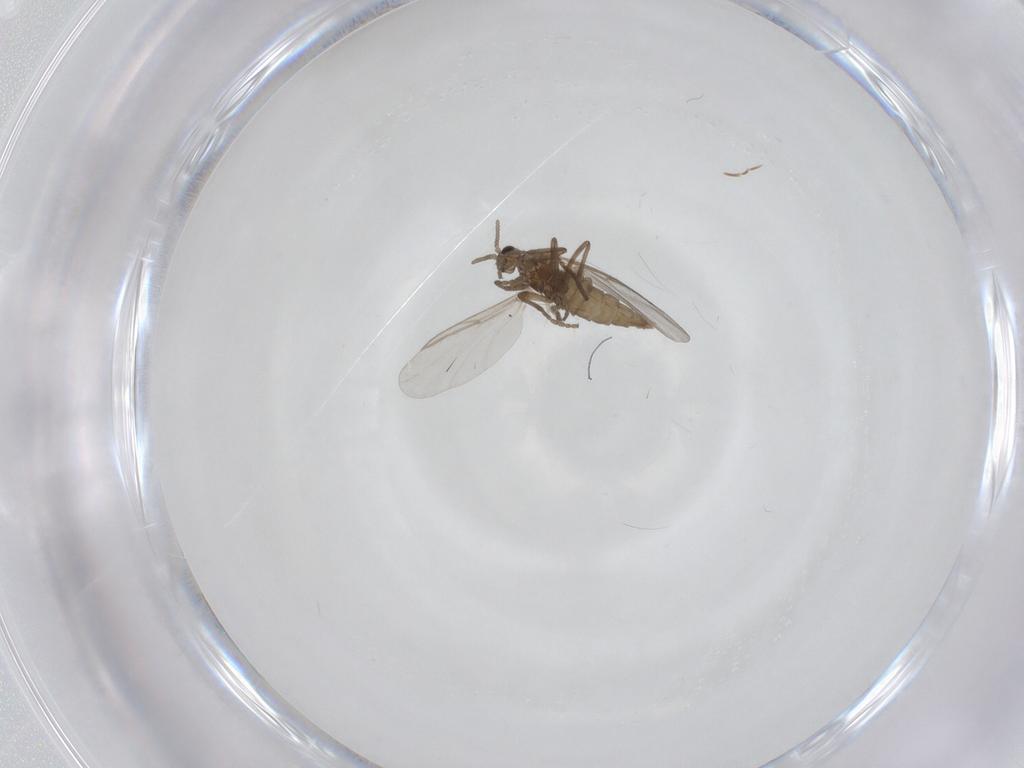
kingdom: Animalia
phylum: Arthropoda
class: Insecta
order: Diptera
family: Cecidomyiidae
